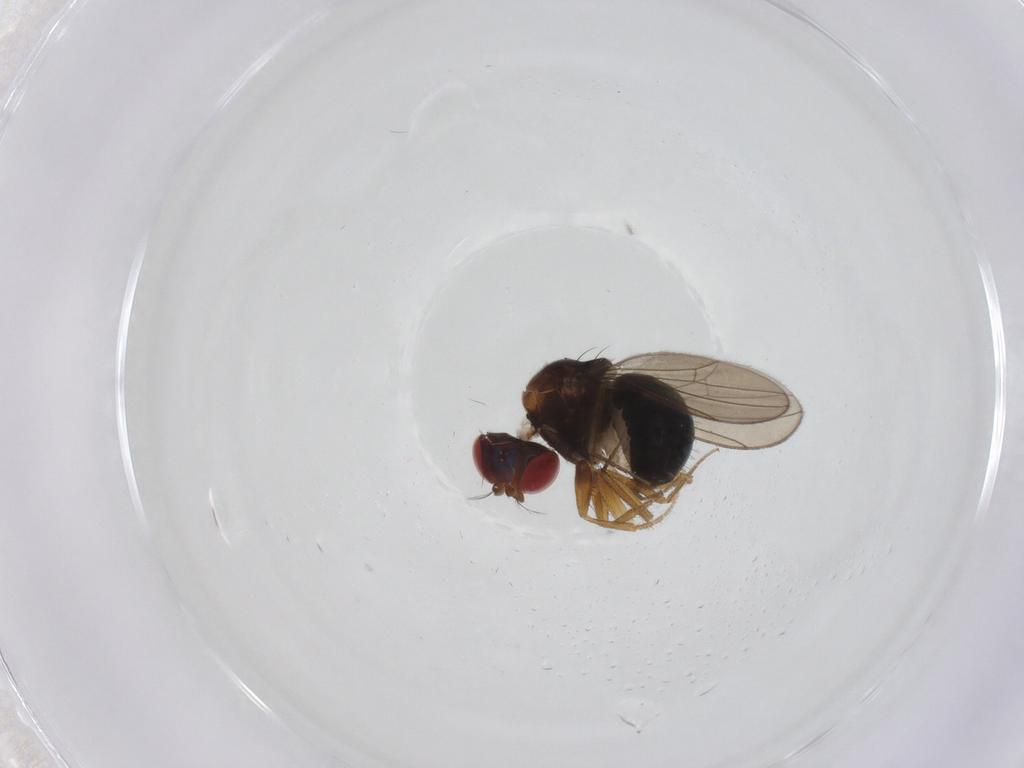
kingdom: Animalia
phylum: Arthropoda
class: Insecta
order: Diptera
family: Drosophilidae
